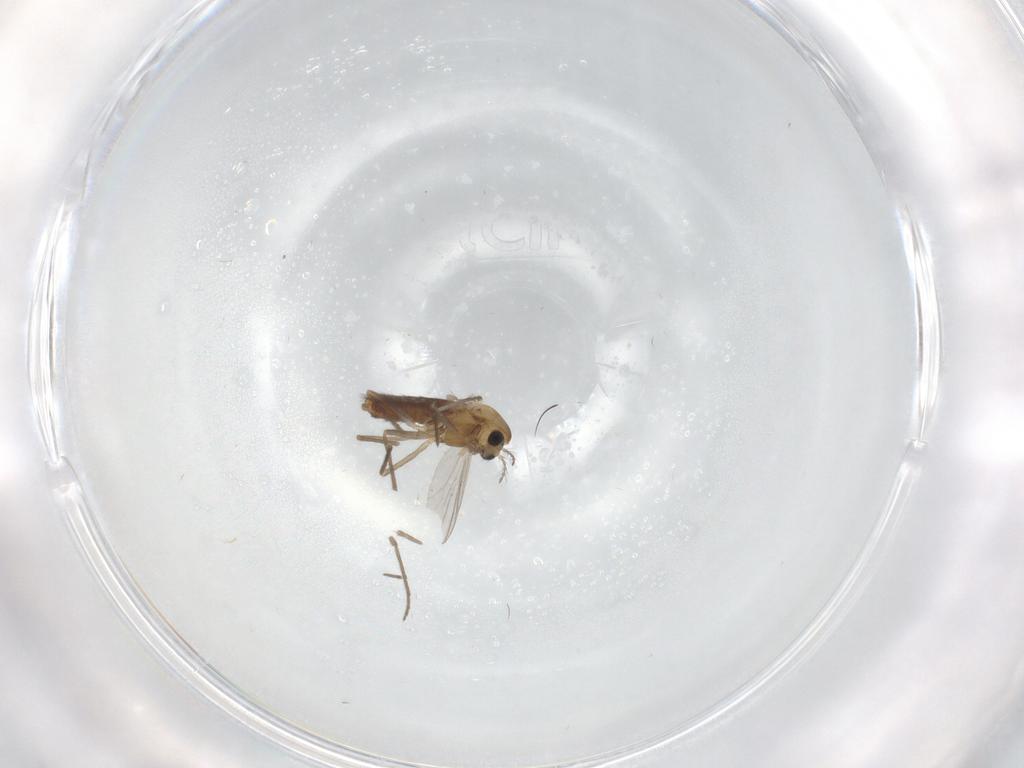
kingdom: Animalia
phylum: Arthropoda
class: Insecta
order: Diptera
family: Chironomidae
